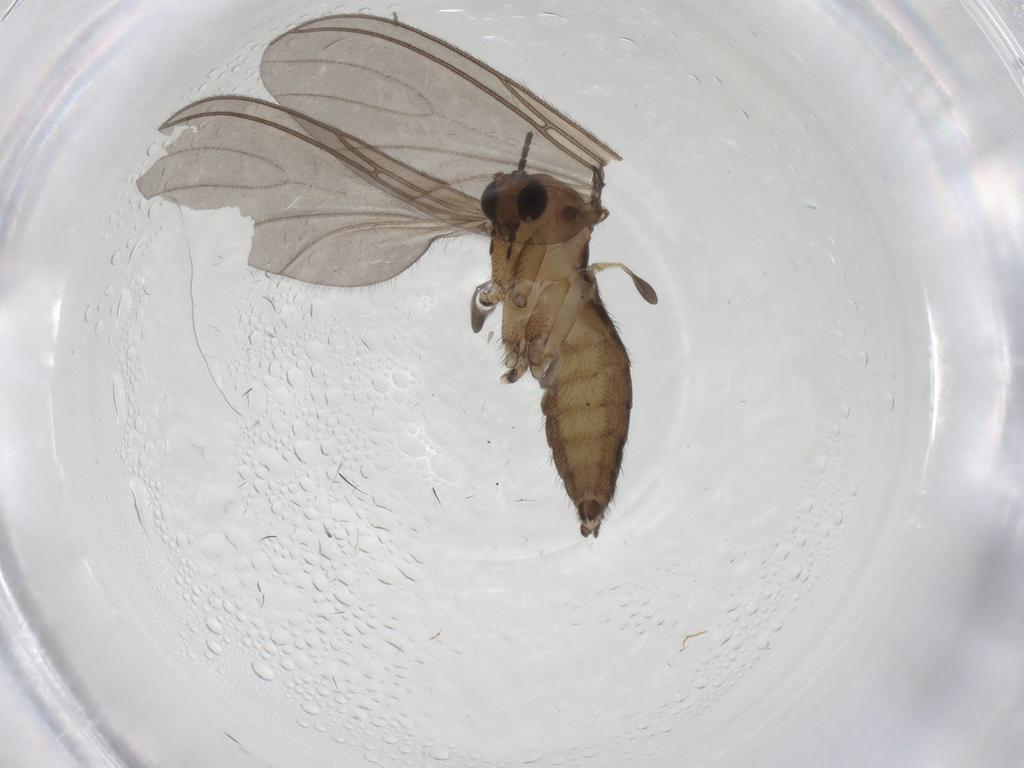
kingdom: Animalia
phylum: Arthropoda
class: Insecta
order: Diptera
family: Sciaridae
